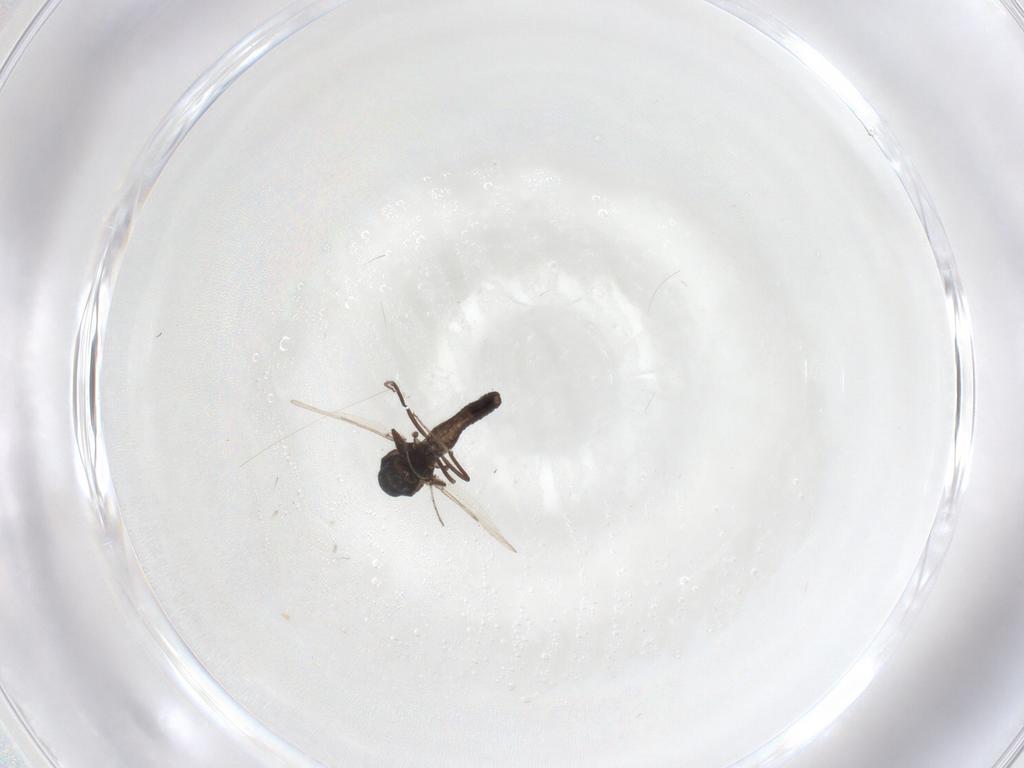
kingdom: Animalia
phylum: Arthropoda
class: Insecta
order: Diptera
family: Ceratopogonidae
